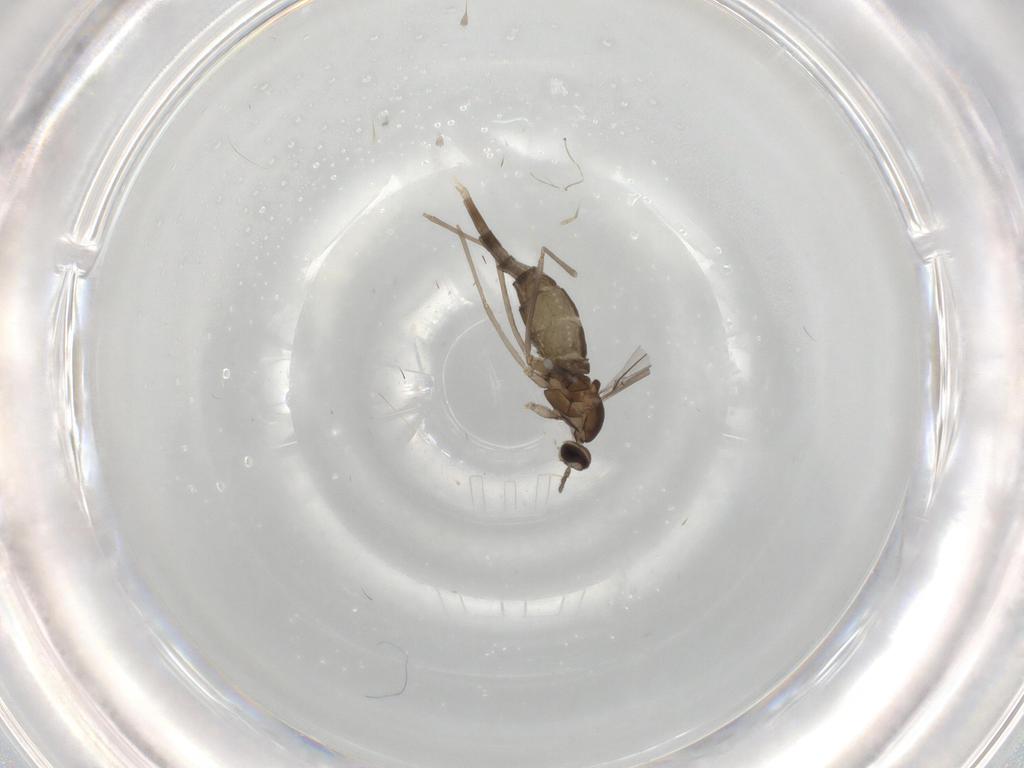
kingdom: Animalia
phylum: Arthropoda
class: Insecta
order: Diptera
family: Cecidomyiidae
